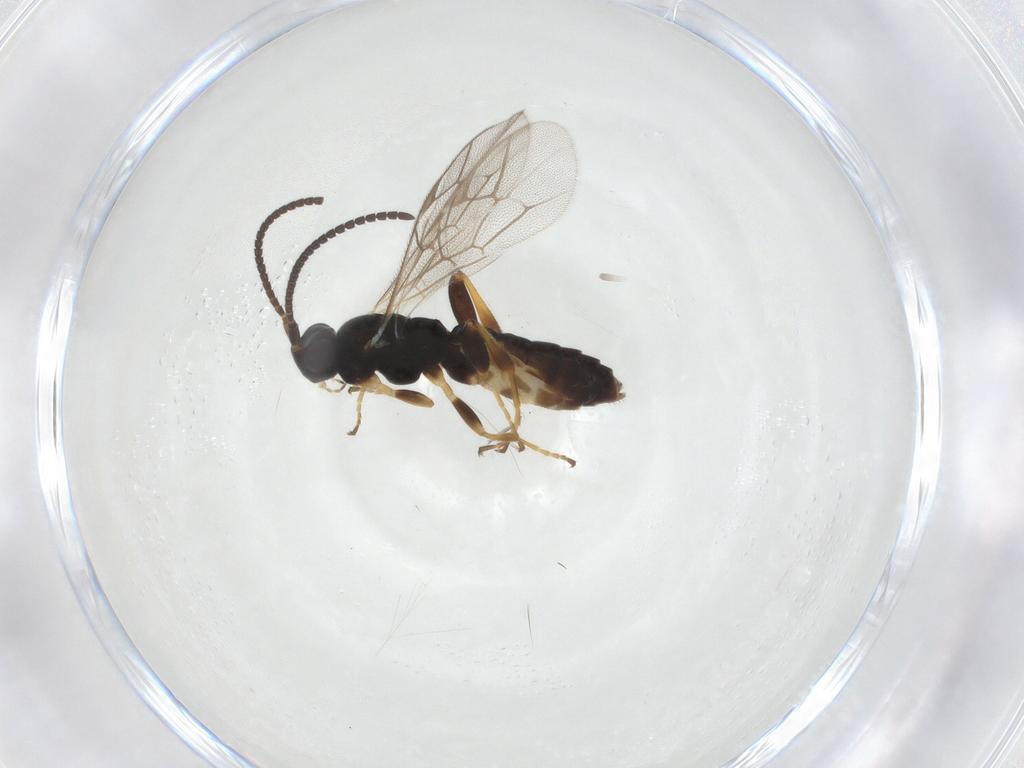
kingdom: Animalia
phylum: Arthropoda
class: Insecta
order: Hymenoptera
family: Ichneumonidae
